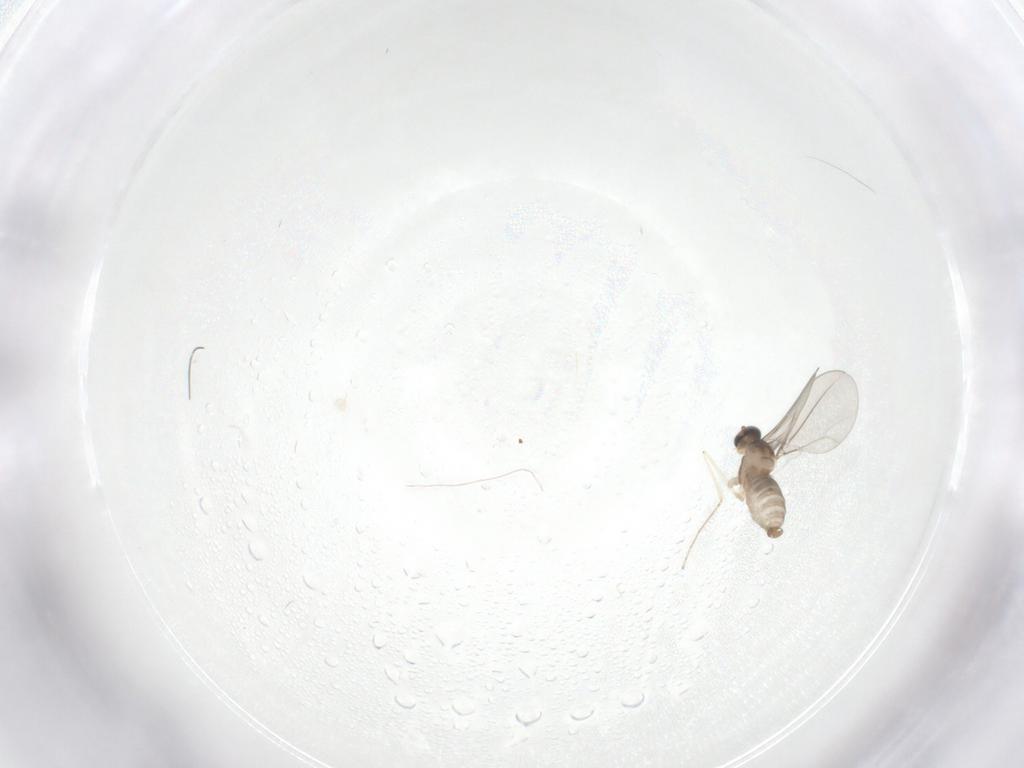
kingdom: Animalia
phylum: Arthropoda
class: Insecta
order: Diptera
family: Cecidomyiidae
